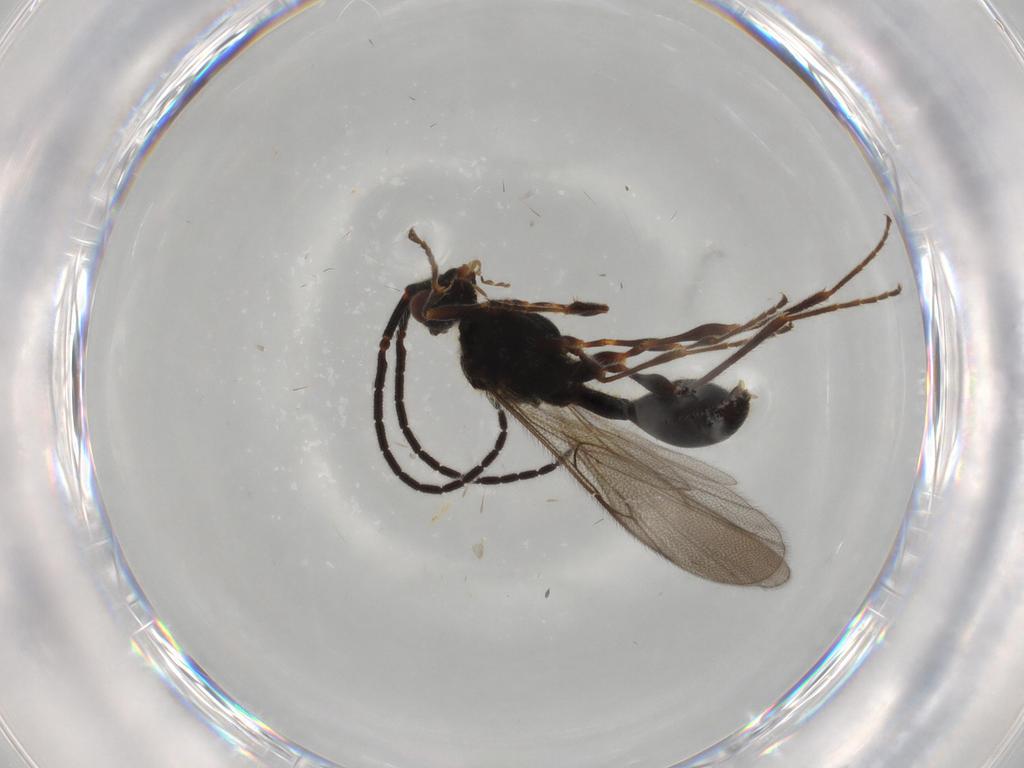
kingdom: Animalia
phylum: Arthropoda
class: Insecta
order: Hymenoptera
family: Diapriidae
